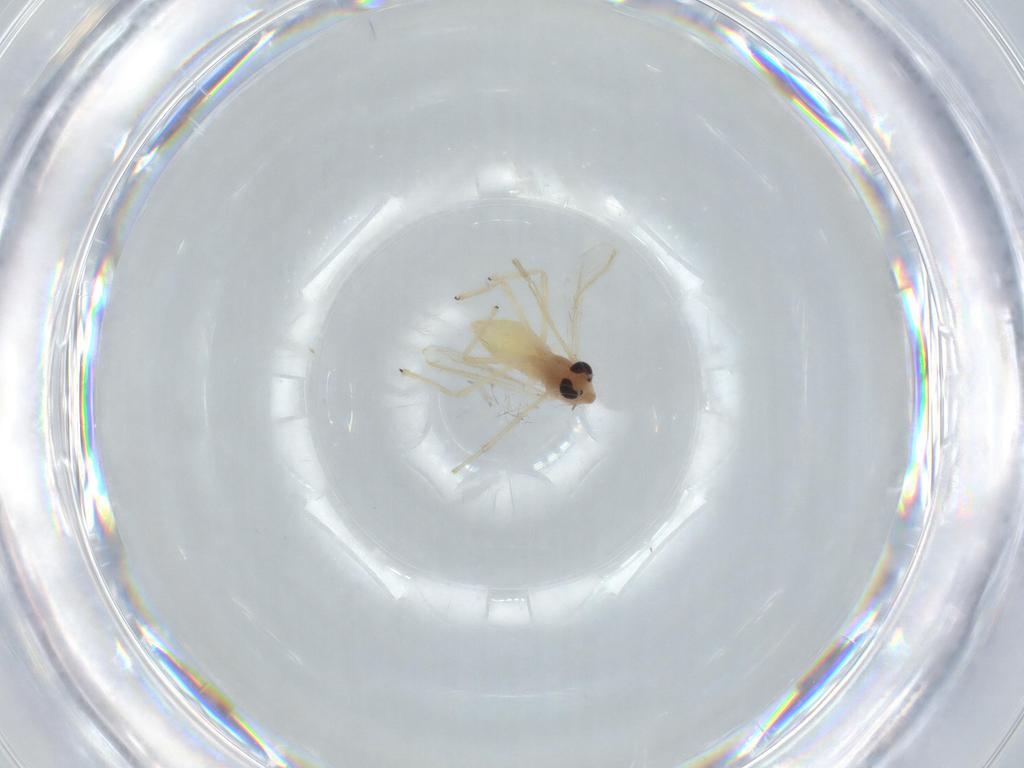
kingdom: Animalia
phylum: Arthropoda
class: Insecta
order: Diptera
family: Chironomidae
